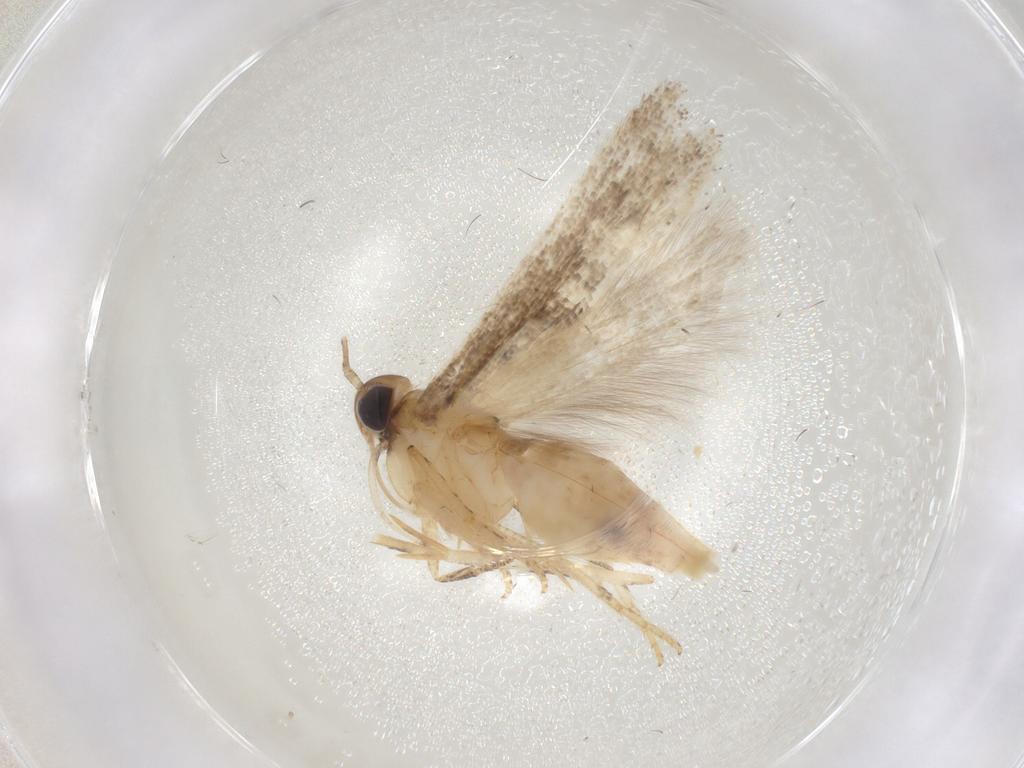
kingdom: Animalia
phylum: Arthropoda
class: Insecta
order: Lepidoptera
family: Gelechiidae
